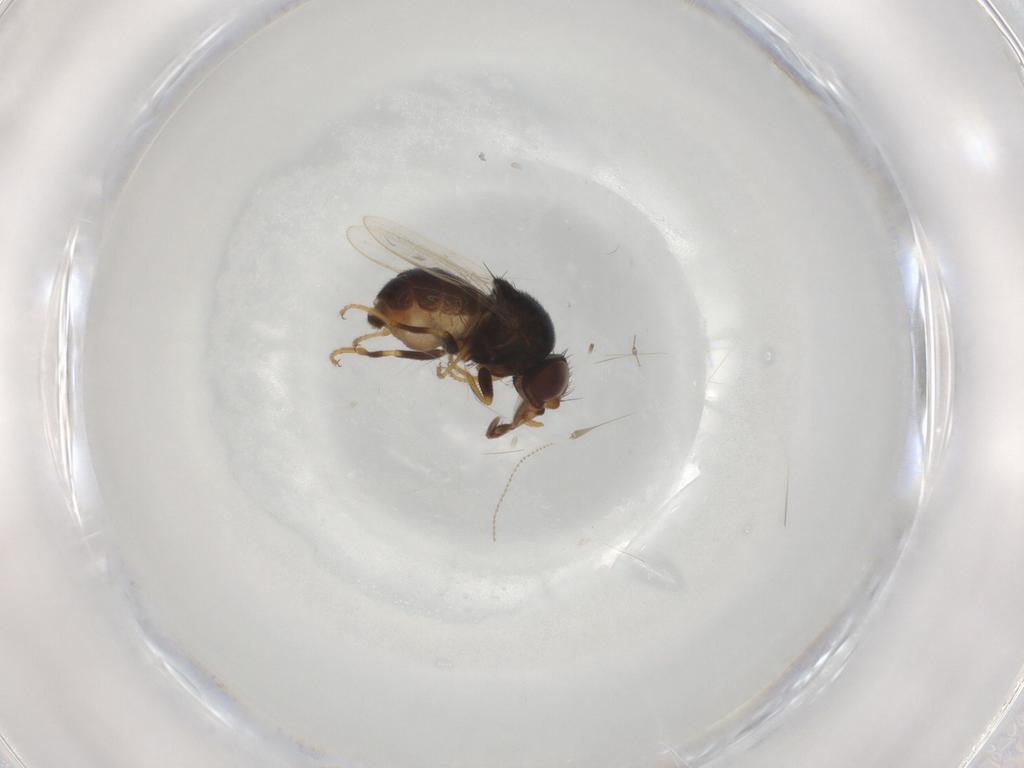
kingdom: Animalia
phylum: Arthropoda
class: Insecta
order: Diptera
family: Chloropidae
